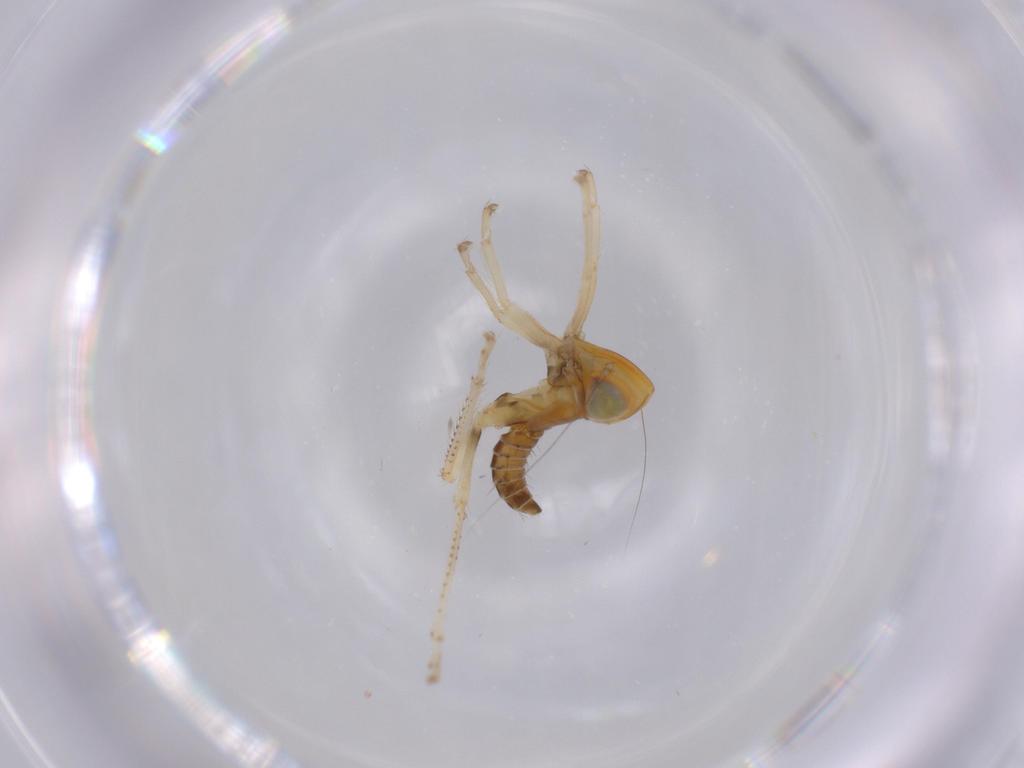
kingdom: Animalia
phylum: Arthropoda
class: Insecta
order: Hemiptera
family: Cicadellidae
